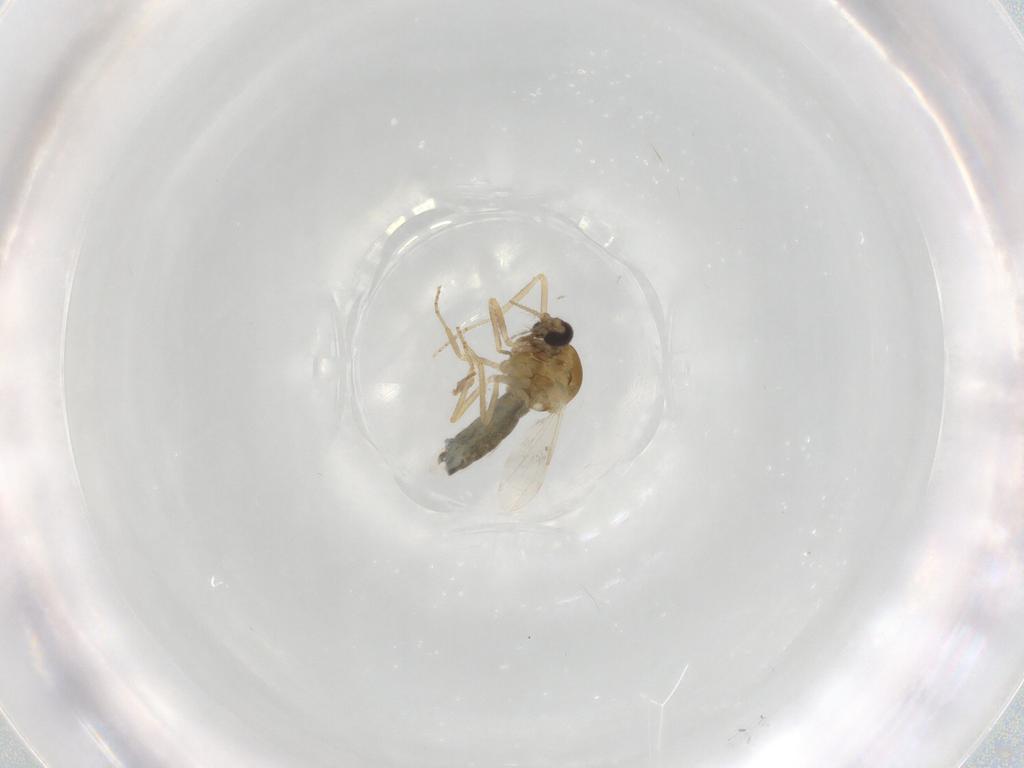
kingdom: Animalia
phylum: Arthropoda
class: Insecta
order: Diptera
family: Ceratopogonidae
